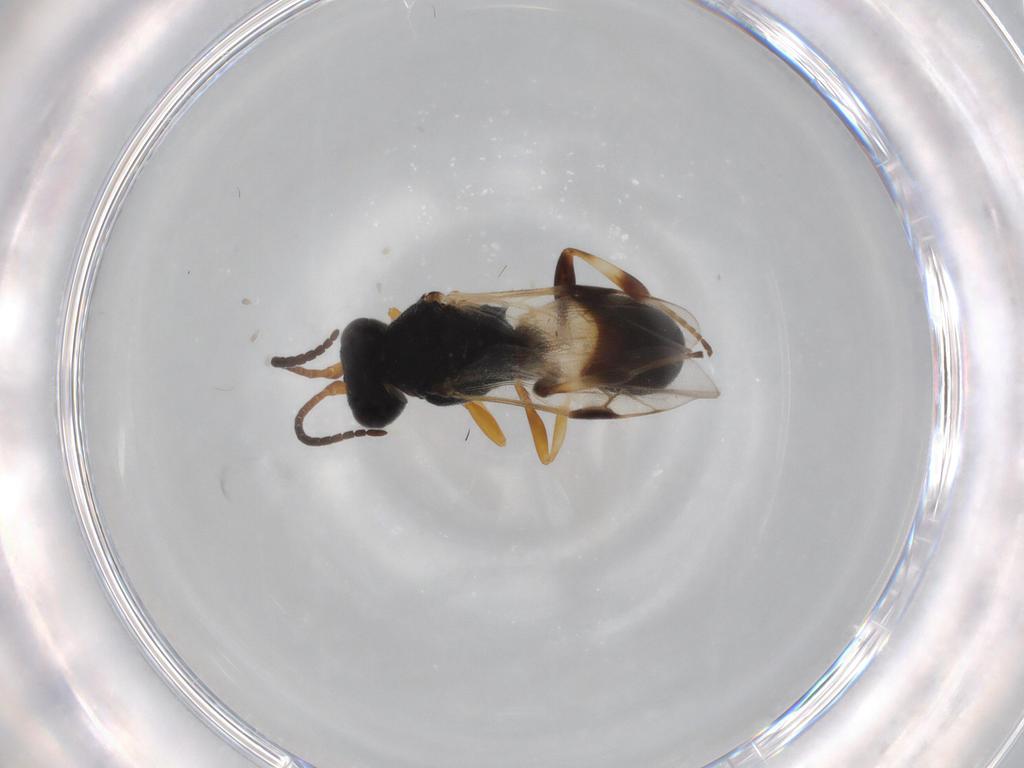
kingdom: Animalia
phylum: Arthropoda
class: Insecta
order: Hymenoptera
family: Braconidae
